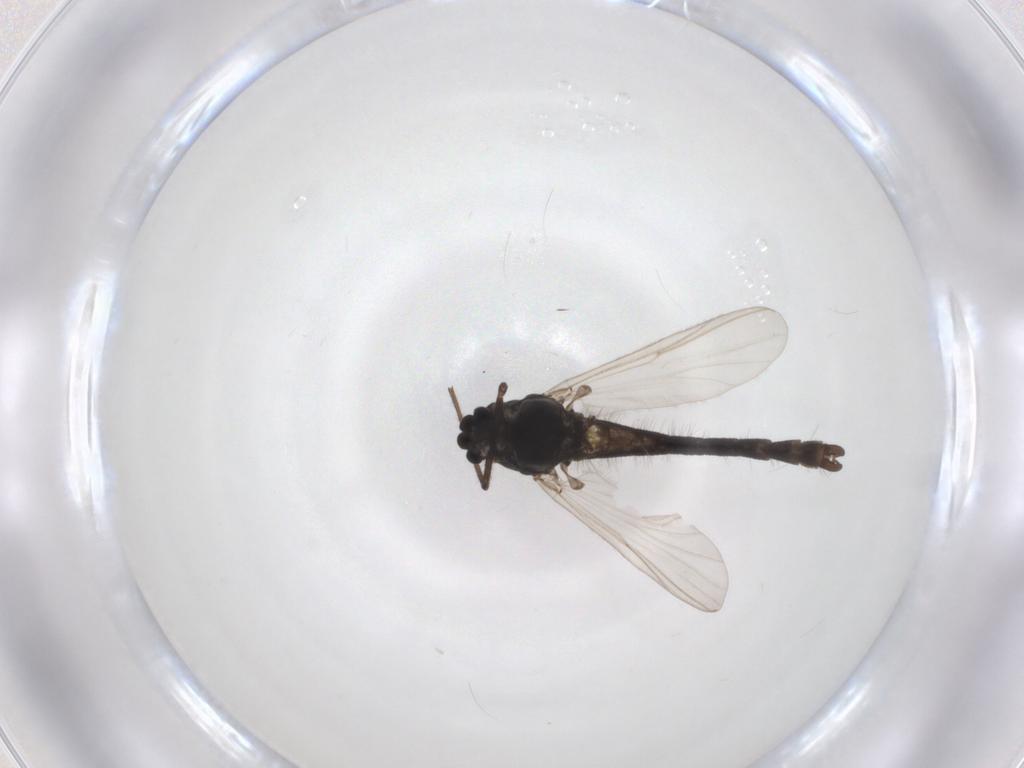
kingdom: Animalia
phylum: Arthropoda
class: Insecta
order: Diptera
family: Chironomidae
